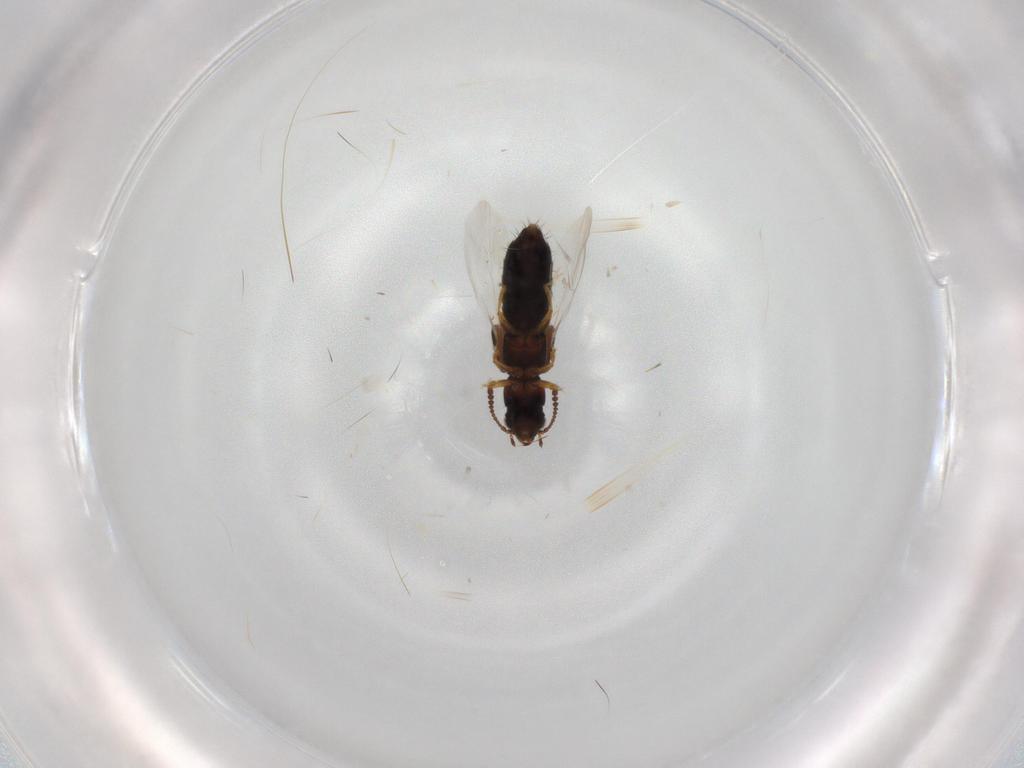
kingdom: Animalia
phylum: Arthropoda
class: Insecta
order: Coleoptera
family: Staphylinidae
